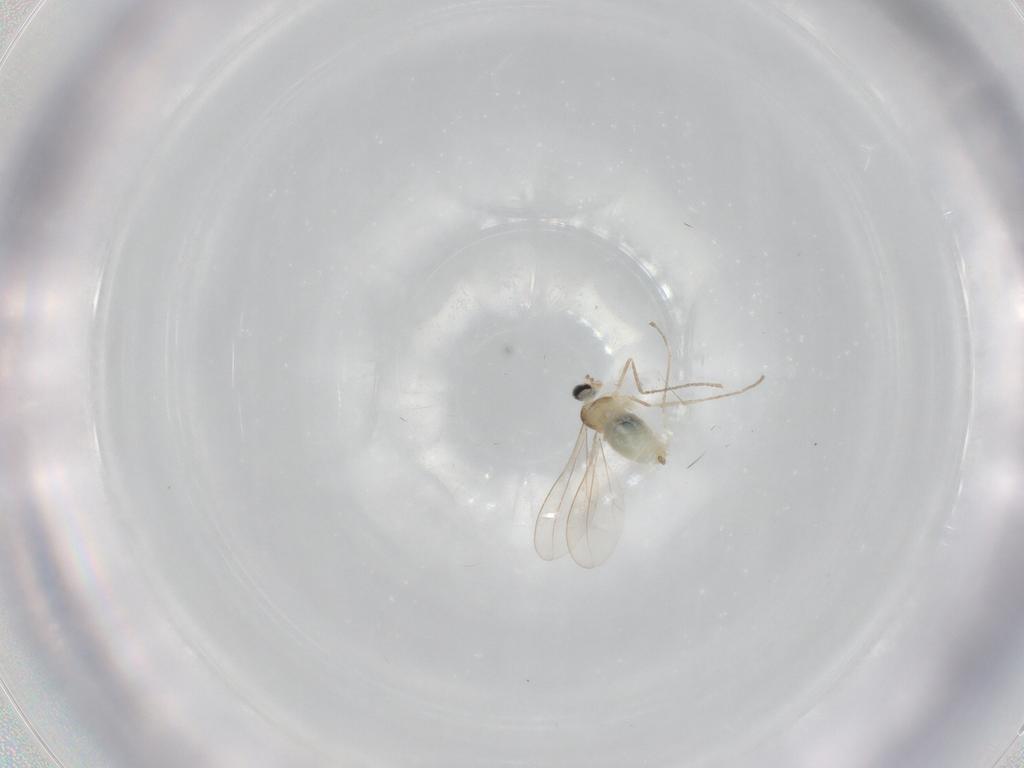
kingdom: Animalia
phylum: Arthropoda
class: Insecta
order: Diptera
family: Cecidomyiidae
